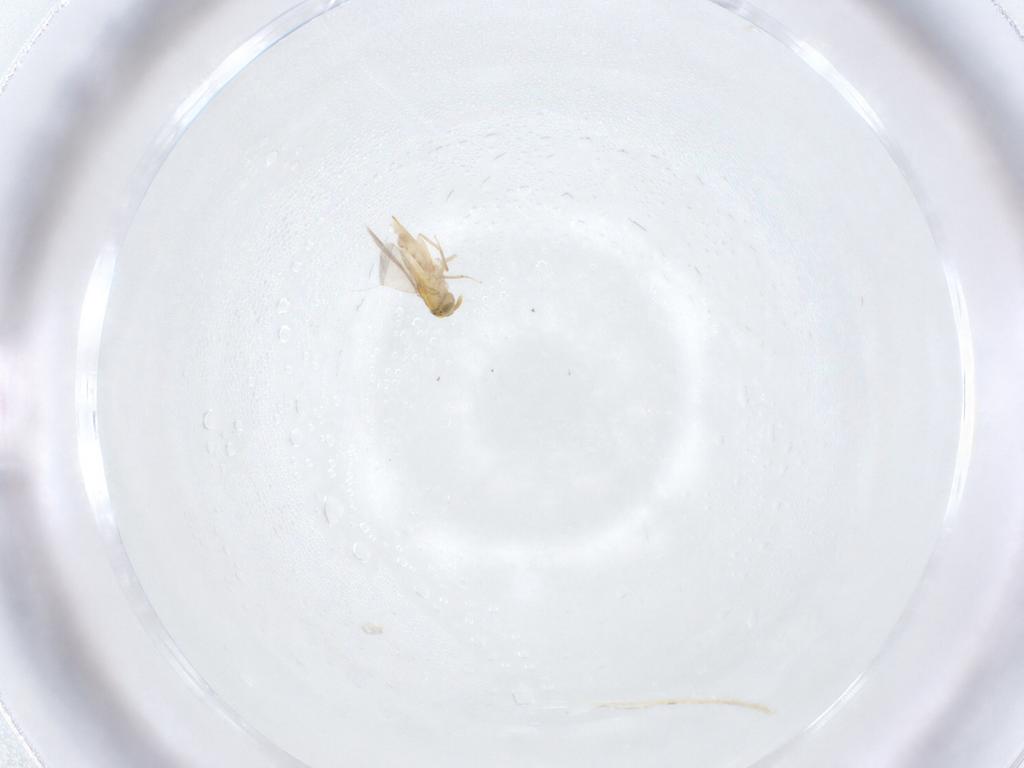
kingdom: Animalia
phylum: Arthropoda
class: Insecta
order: Hymenoptera
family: Aphelinidae
